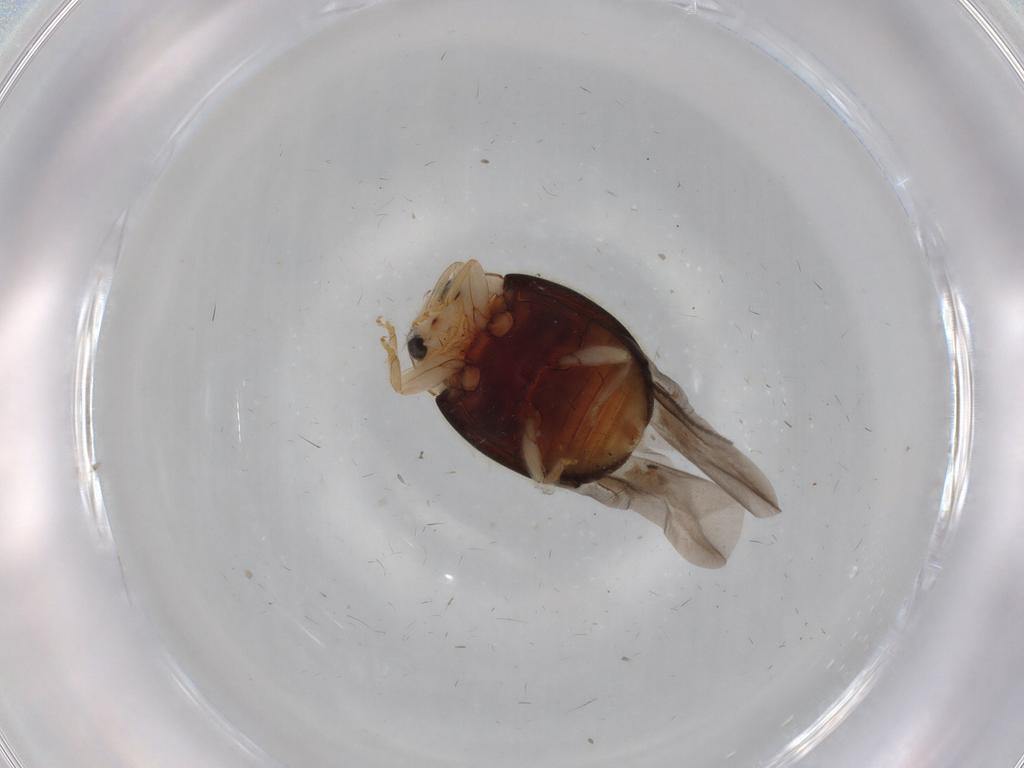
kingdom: Animalia
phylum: Arthropoda
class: Insecta
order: Coleoptera
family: Coccinellidae
